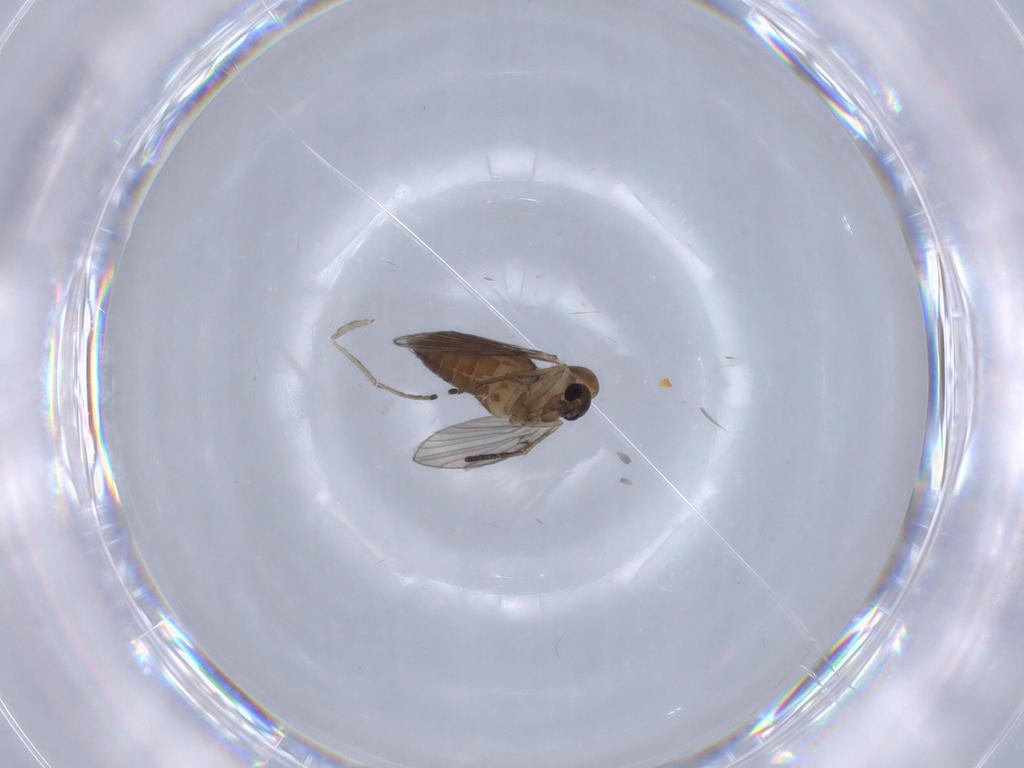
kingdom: Animalia
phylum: Arthropoda
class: Insecta
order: Diptera
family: Psychodidae
